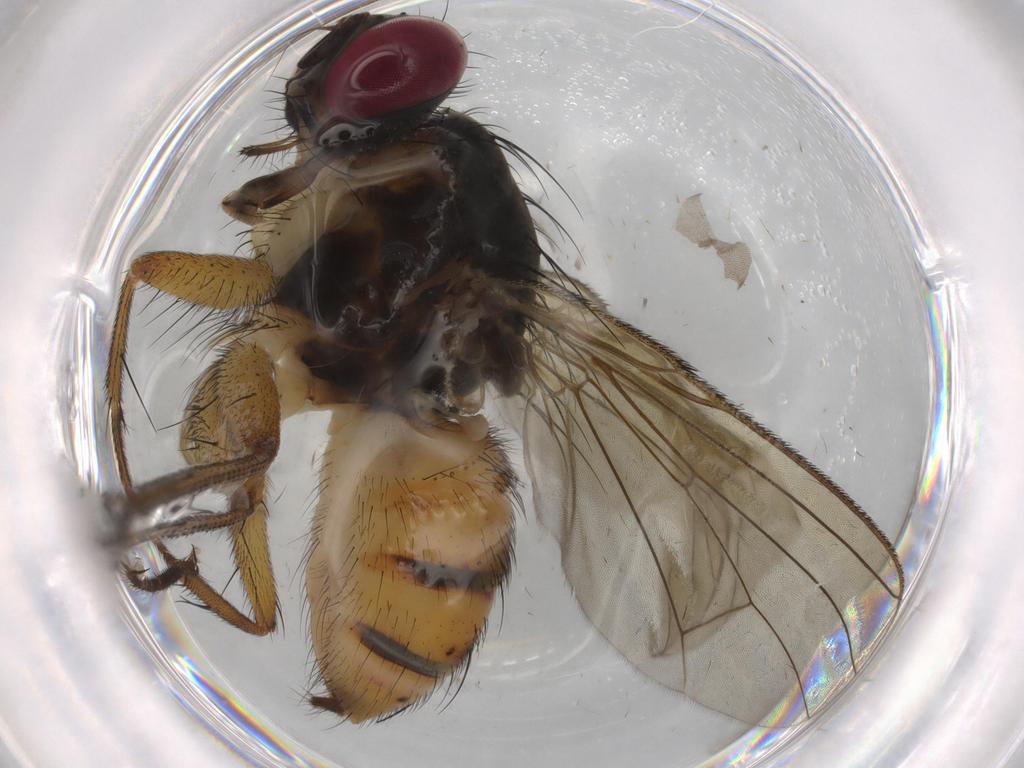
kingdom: Animalia
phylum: Arthropoda
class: Insecta
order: Diptera
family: Muscidae
